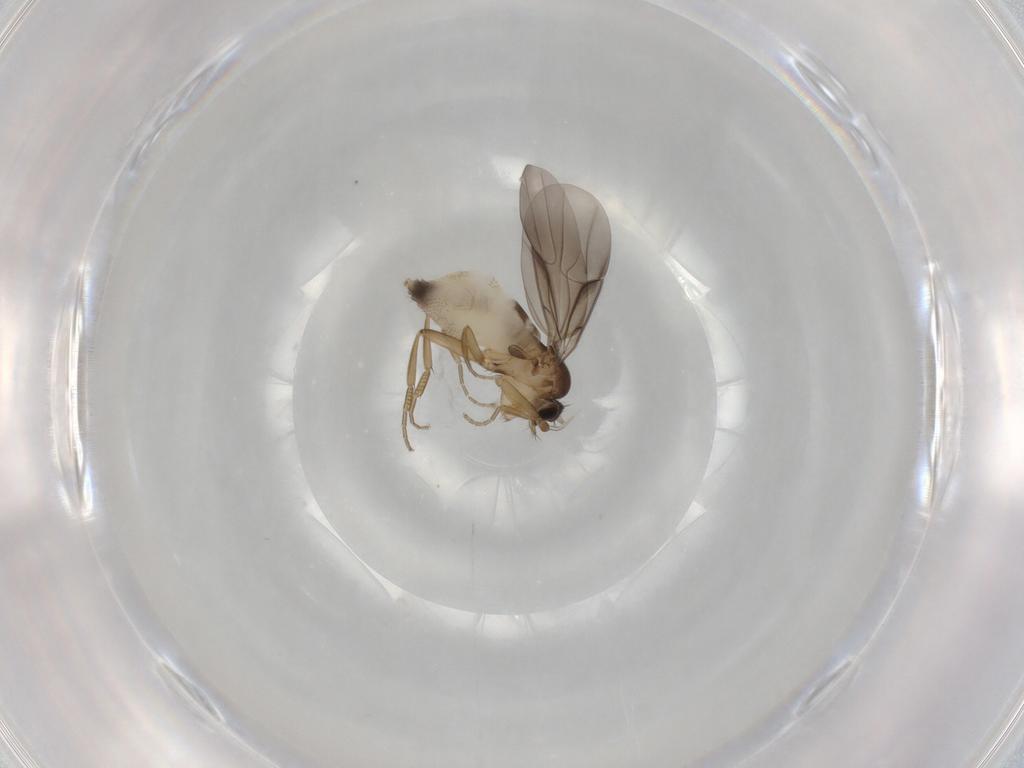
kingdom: Animalia
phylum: Arthropoda
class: Insecta
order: Diptera
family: Phoridae
